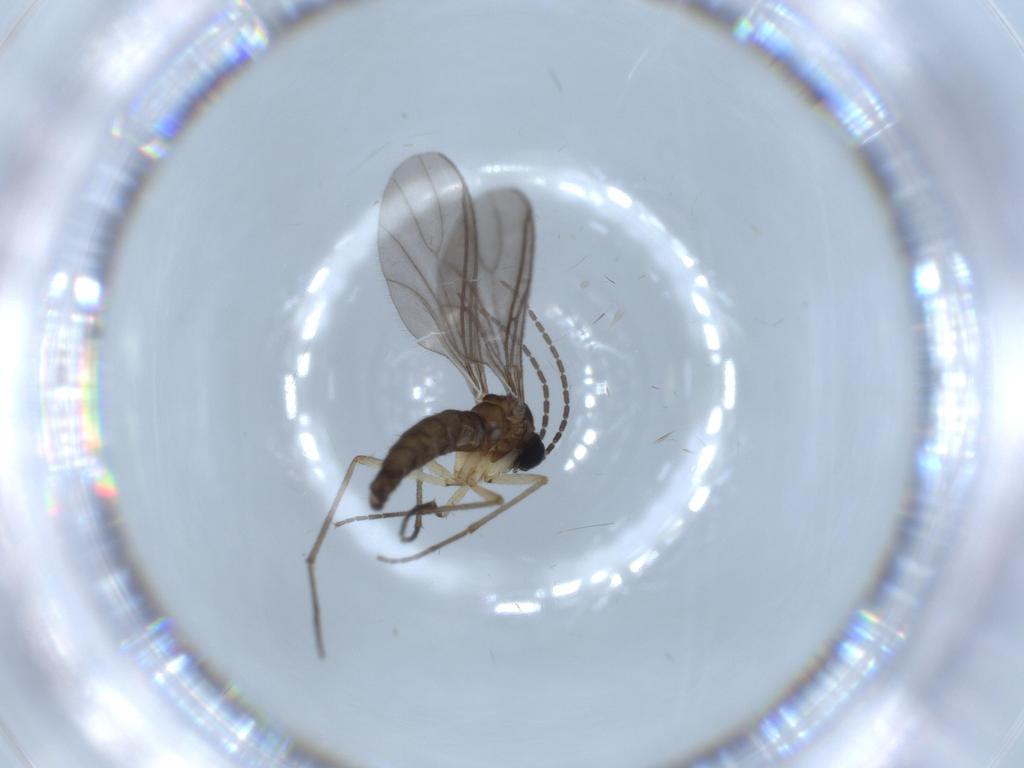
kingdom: Animalia
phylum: Arthropoda
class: Insecta
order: Diptera
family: Sciaridae
